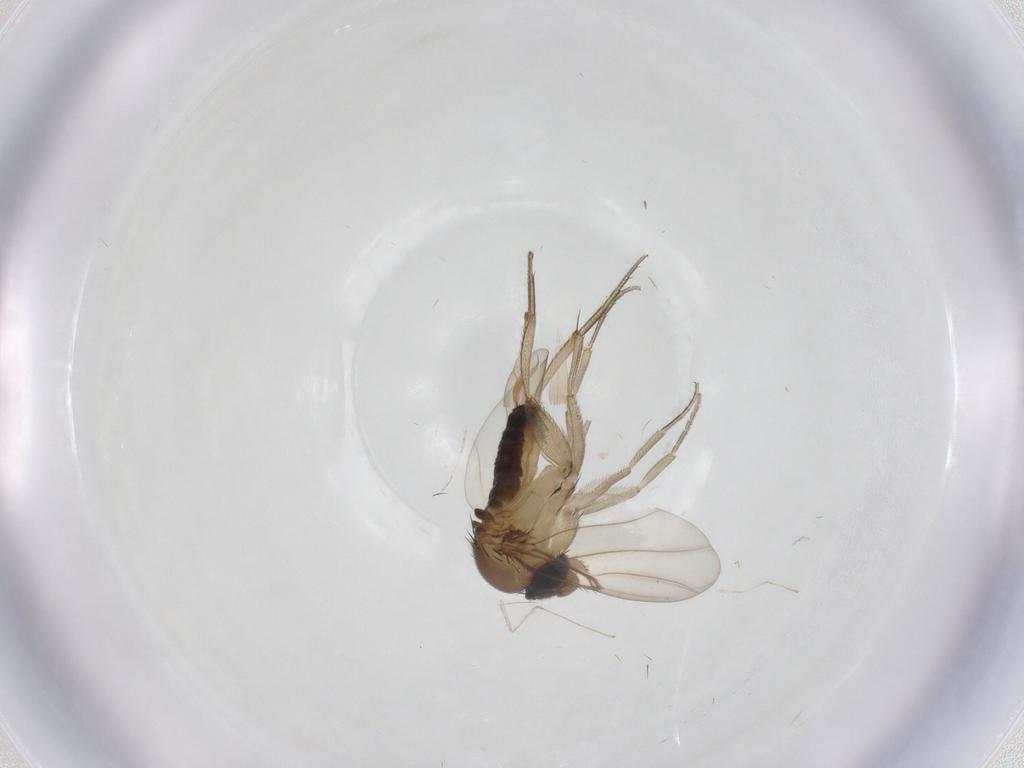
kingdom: Animalia
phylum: Arthropoda
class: Insecta
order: Diptera
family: Phoridae
